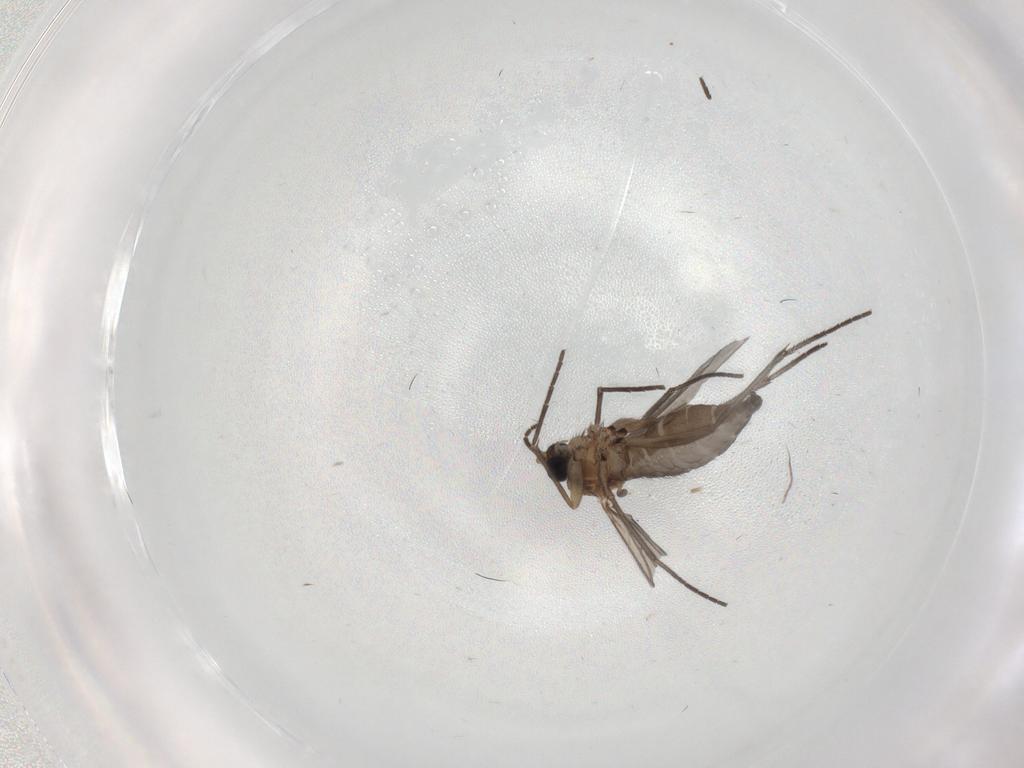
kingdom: Animalia
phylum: Arthropoda
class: Insecta
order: Diptera
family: Sciaridae
